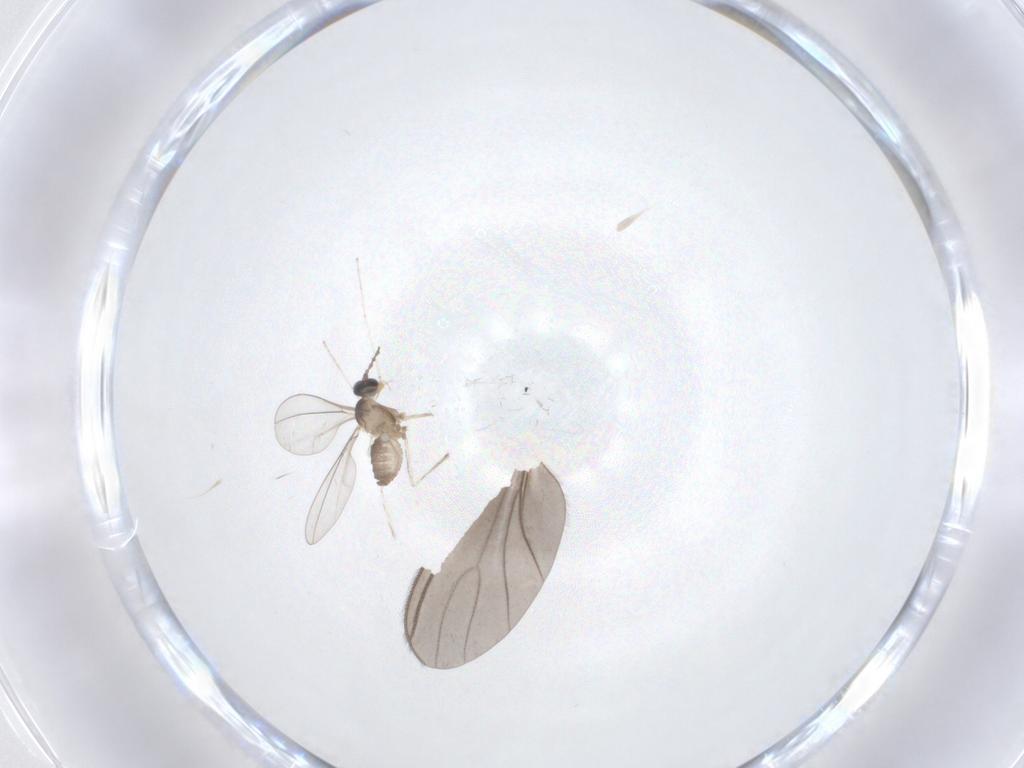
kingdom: Animalia
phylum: Arthropoda
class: Insecta
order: Diptera
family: Cecidomyiidae
